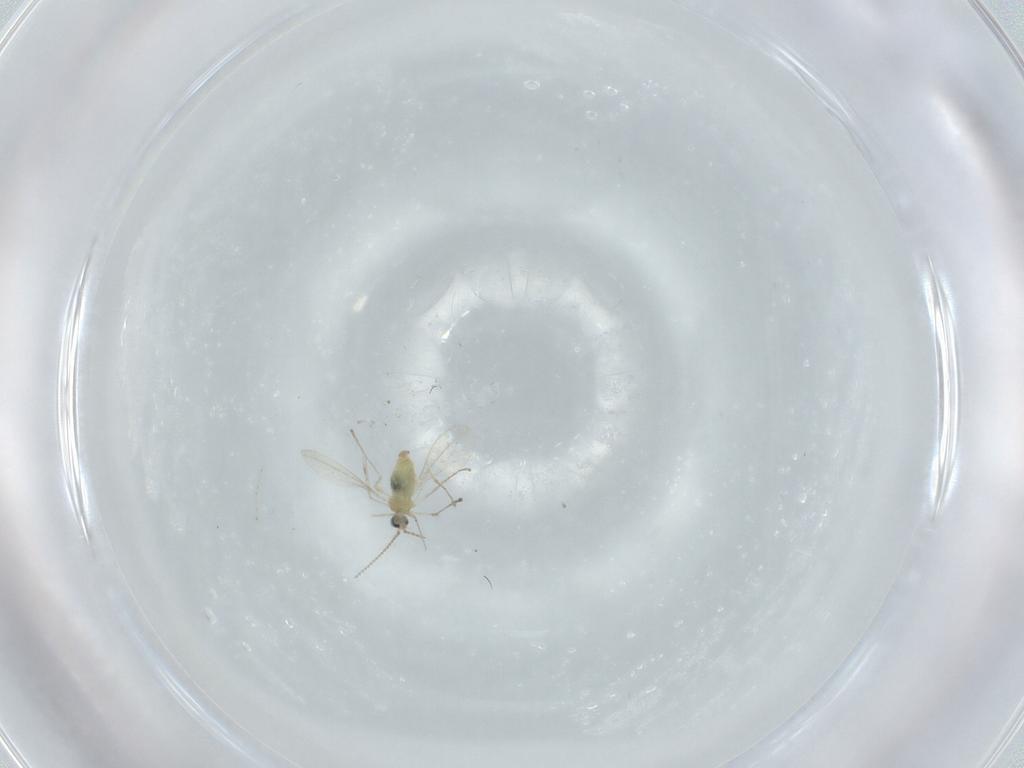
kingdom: Animalia
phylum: Arthropoda
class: Insecta
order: Diptera
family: Cecidomyiidae
